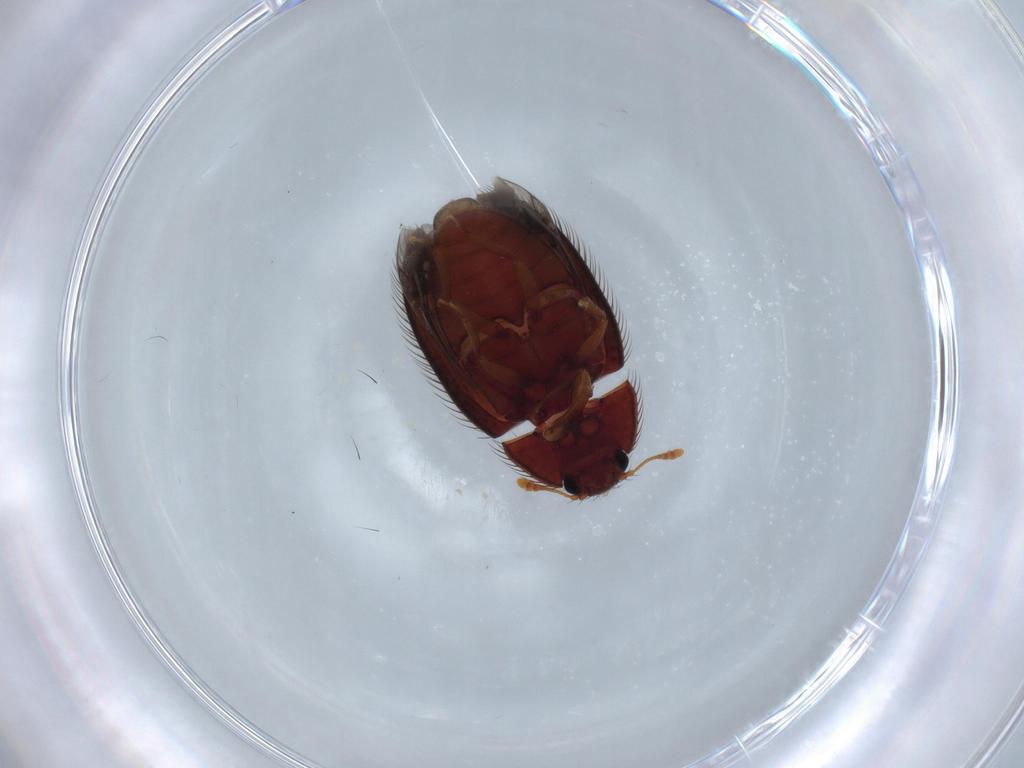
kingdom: Animalia
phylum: Arthropoda
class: Insecta
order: Coleoptera
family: Biphyllidae
